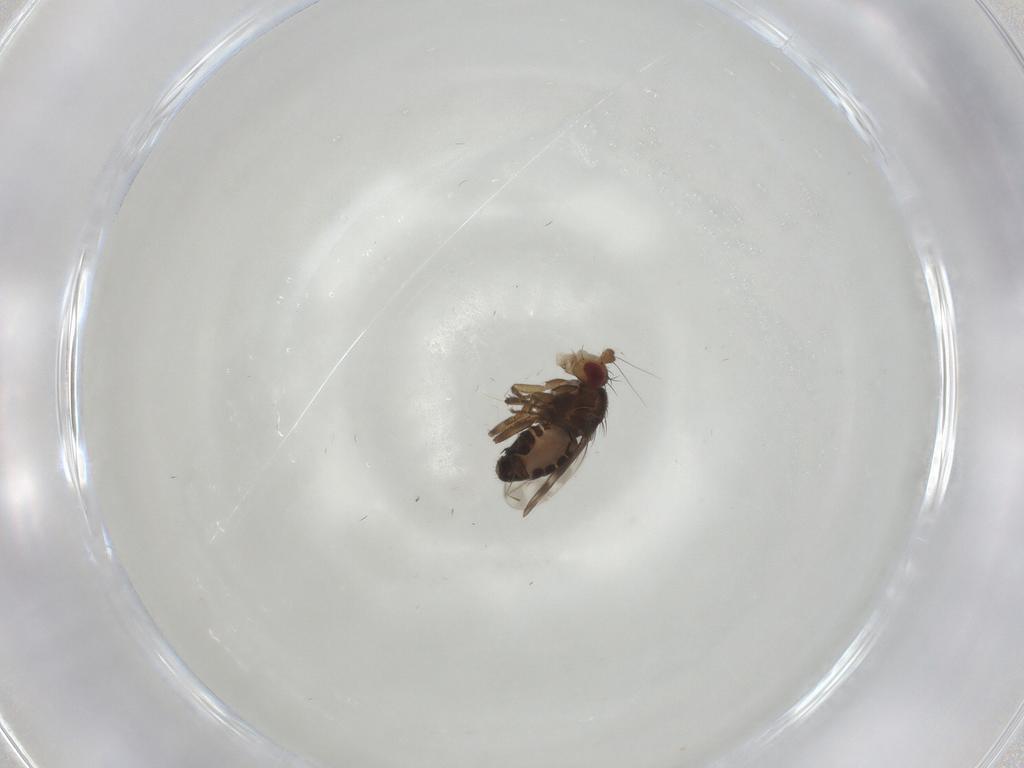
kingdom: Animalia
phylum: Arthropoda
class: Insecta
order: Diptera
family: Sphaeroceridae
